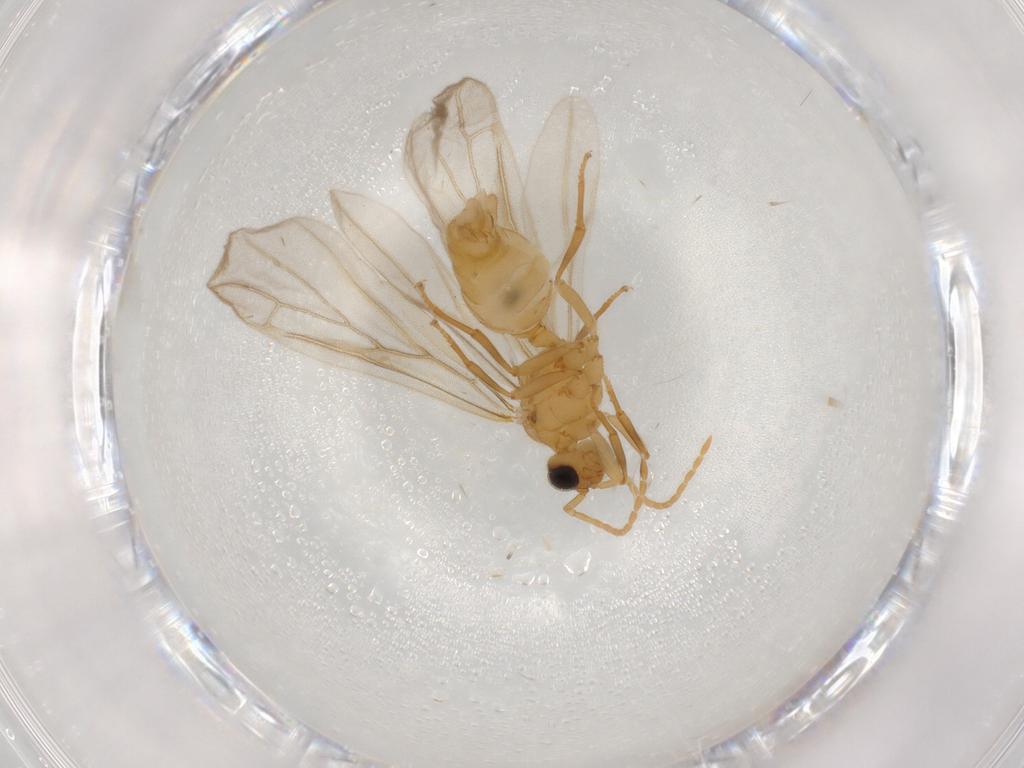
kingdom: Animalia
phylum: Arthropoda
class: Insecta
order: Hymenoptera
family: Formicidae
